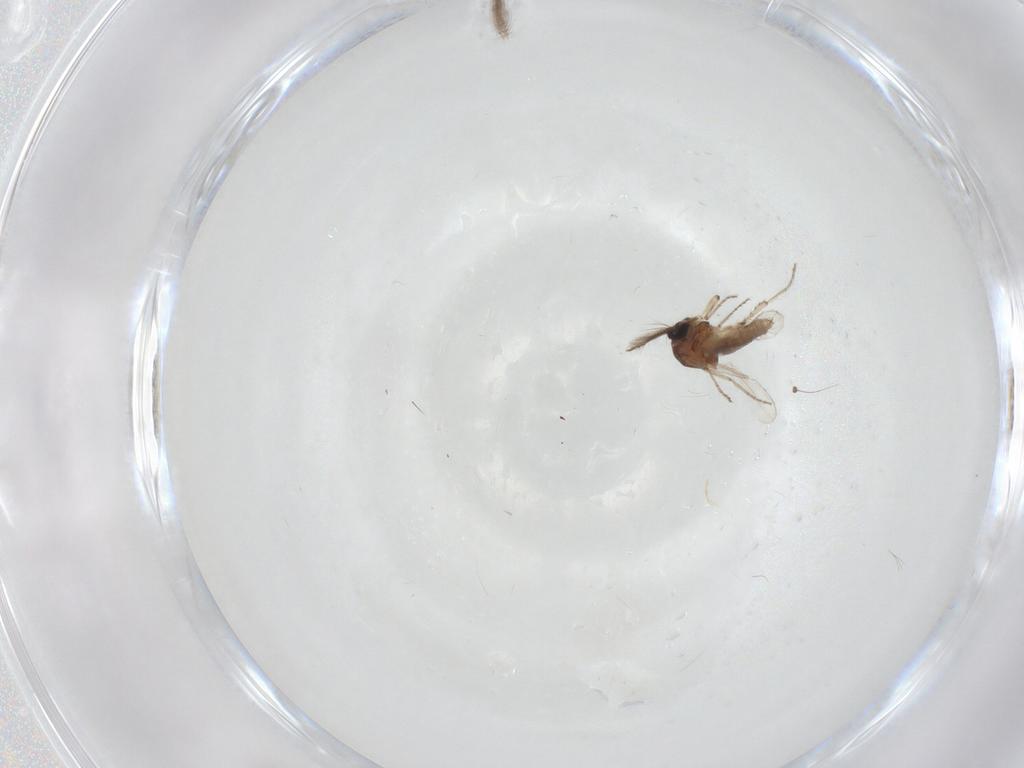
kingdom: Animalia
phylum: Arthropoda
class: Insecta
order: Diptera
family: Ceratopogonidae
